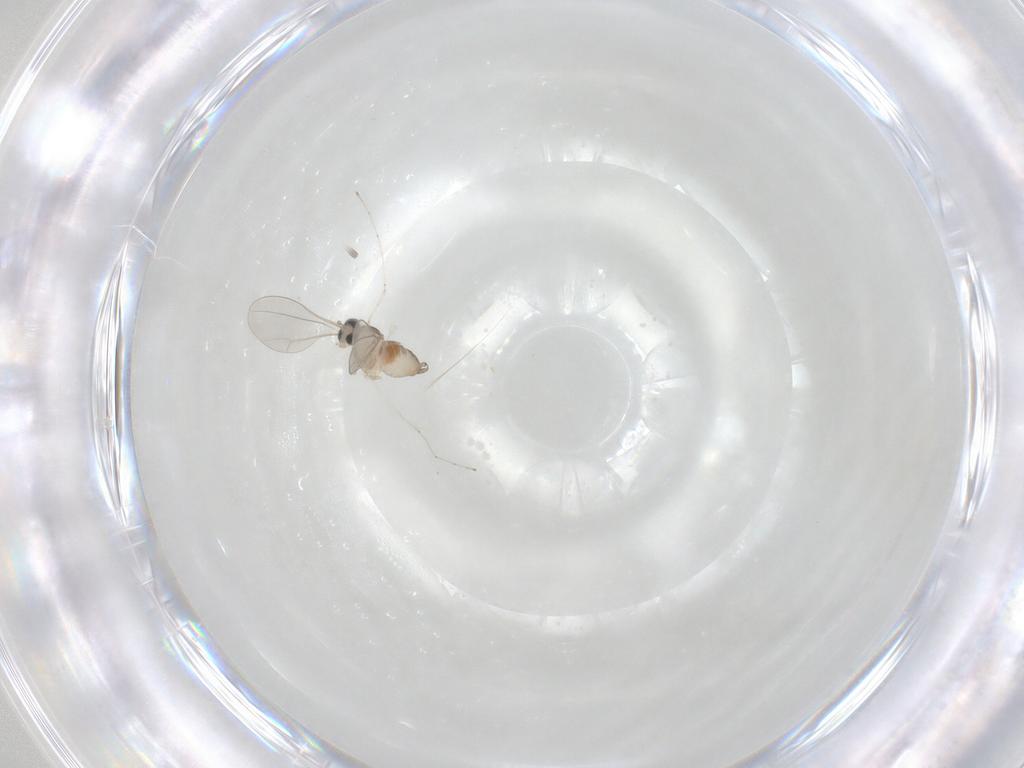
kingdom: Animalia
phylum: Arthropoda
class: Insecta
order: Diptera
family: Cecidomyiidae
